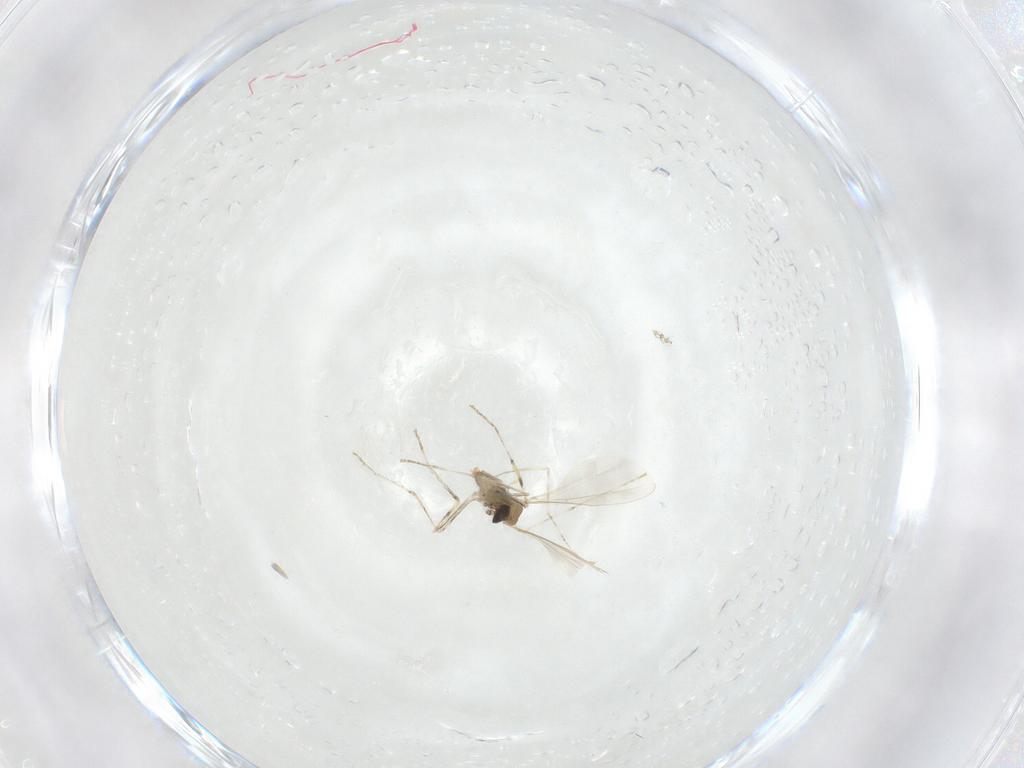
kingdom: Animalia
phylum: Arthropoda
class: Insecta
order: Diptera
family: Cecidomyiidae
